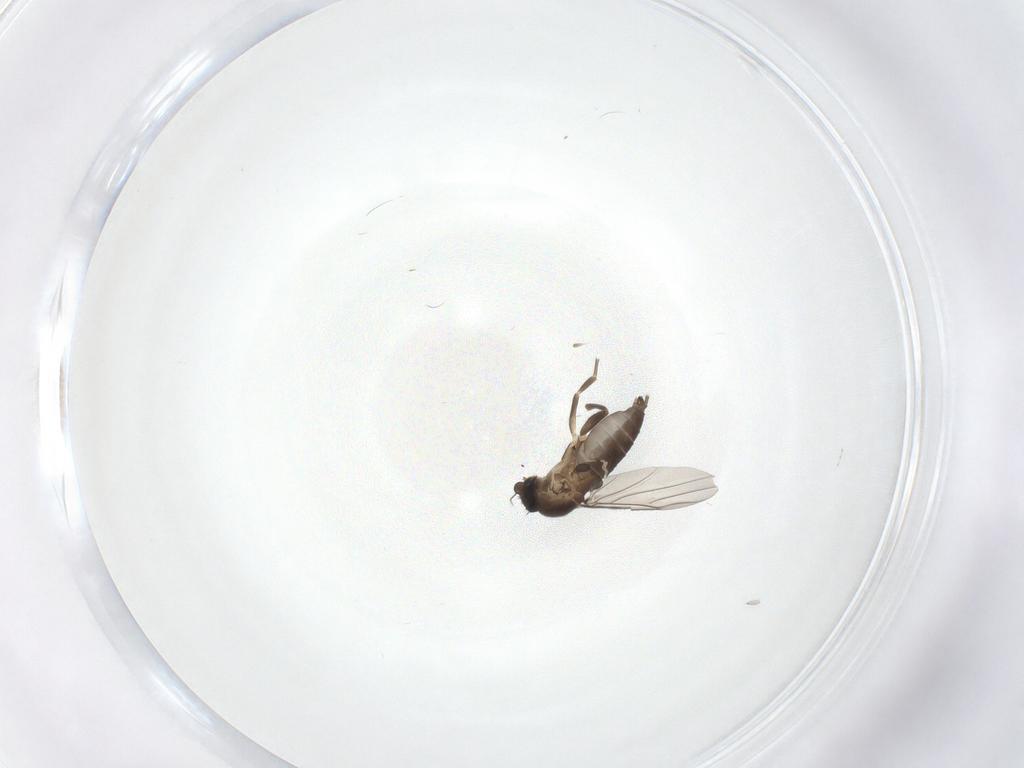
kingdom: Animalia
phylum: Arthropoda
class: Insecta
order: Diptera
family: Phoridae
